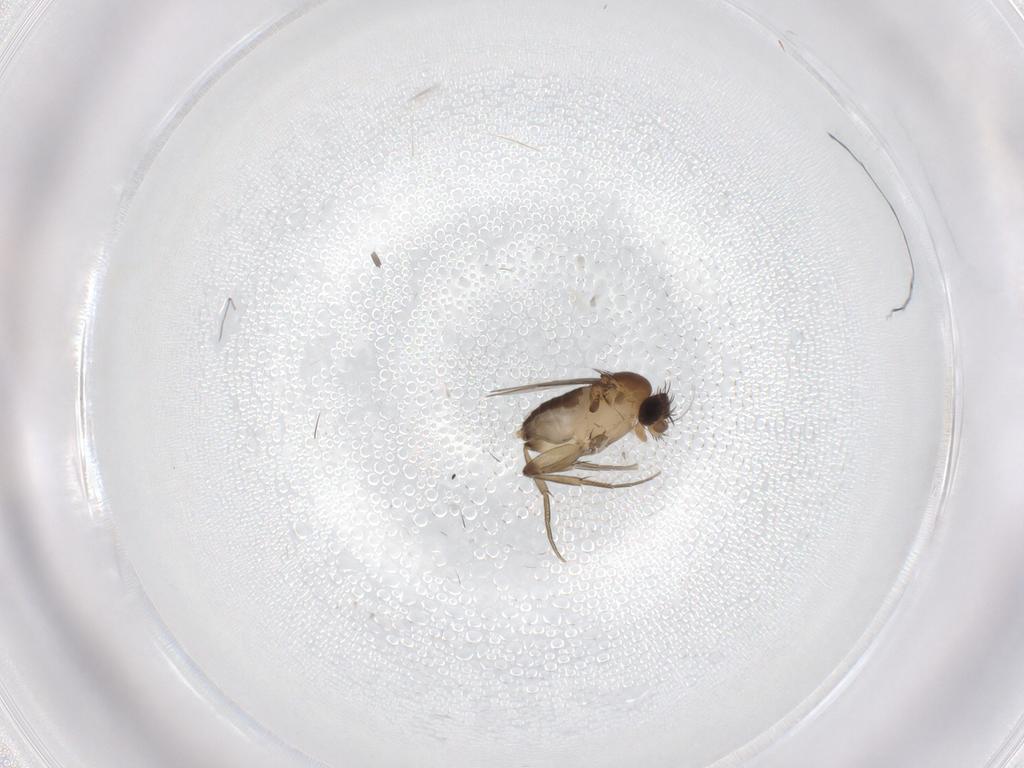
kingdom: Animalia
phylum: Arthropoda
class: Insecta
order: Diptera
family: Phoridae
